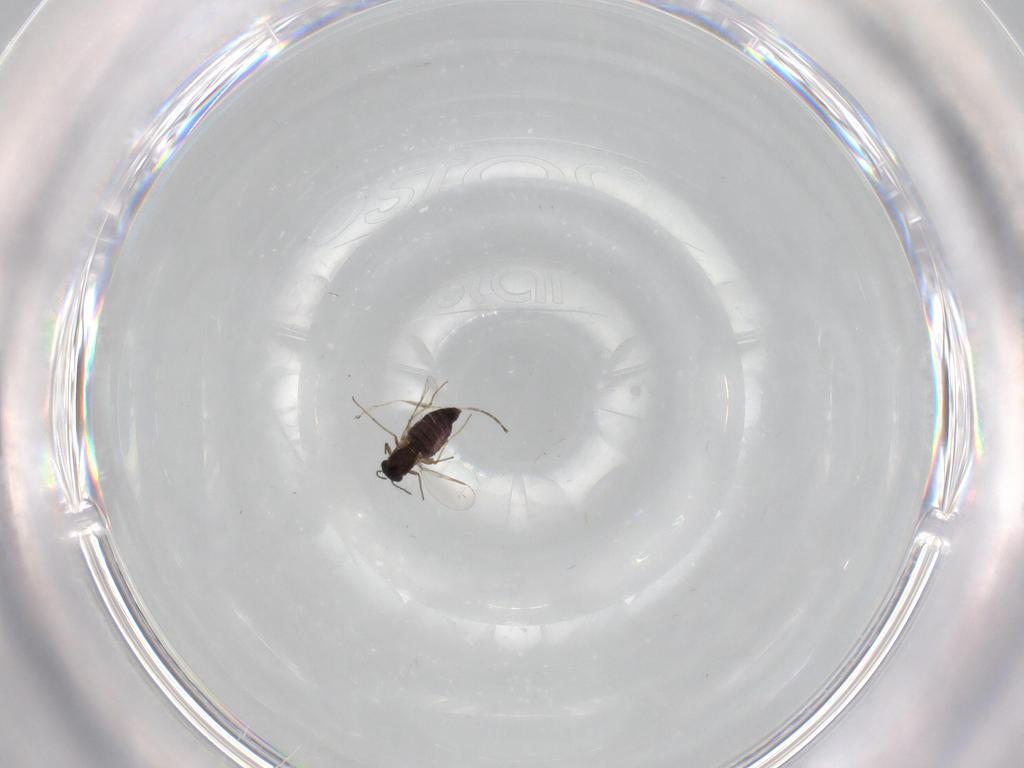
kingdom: Animalia
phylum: Arthropoda
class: Insecta
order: Diptera
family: Chironomidae
